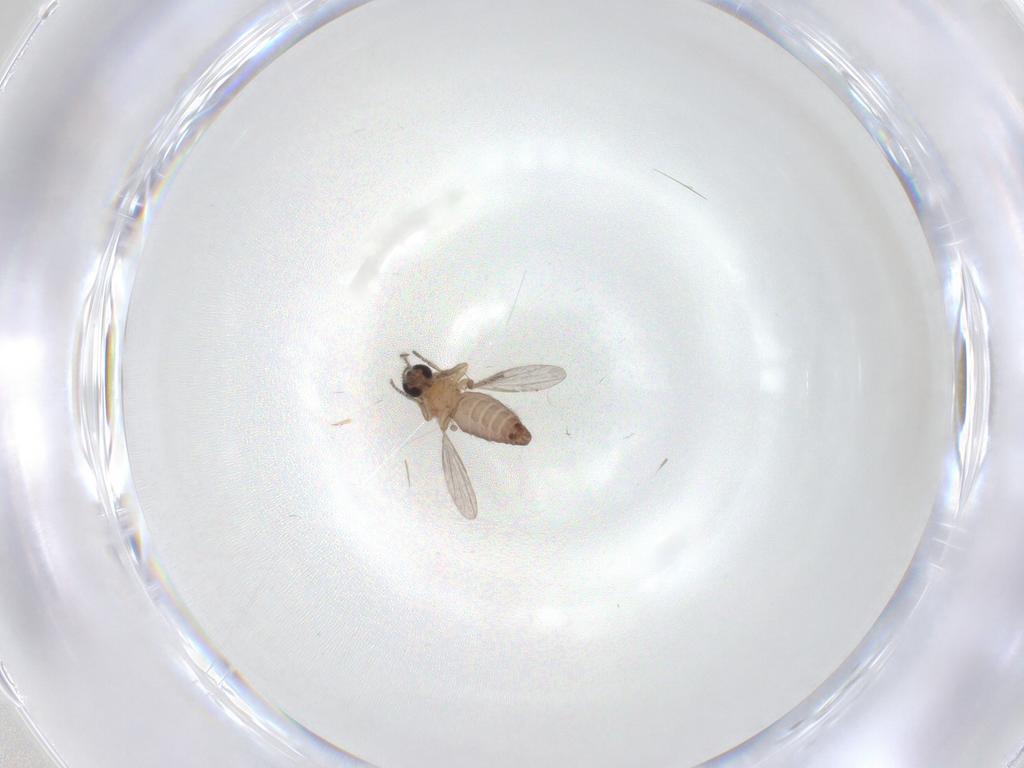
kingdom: Animalia
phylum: Arthropoda
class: Insecta
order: Diptera
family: Ceratopogonidae
